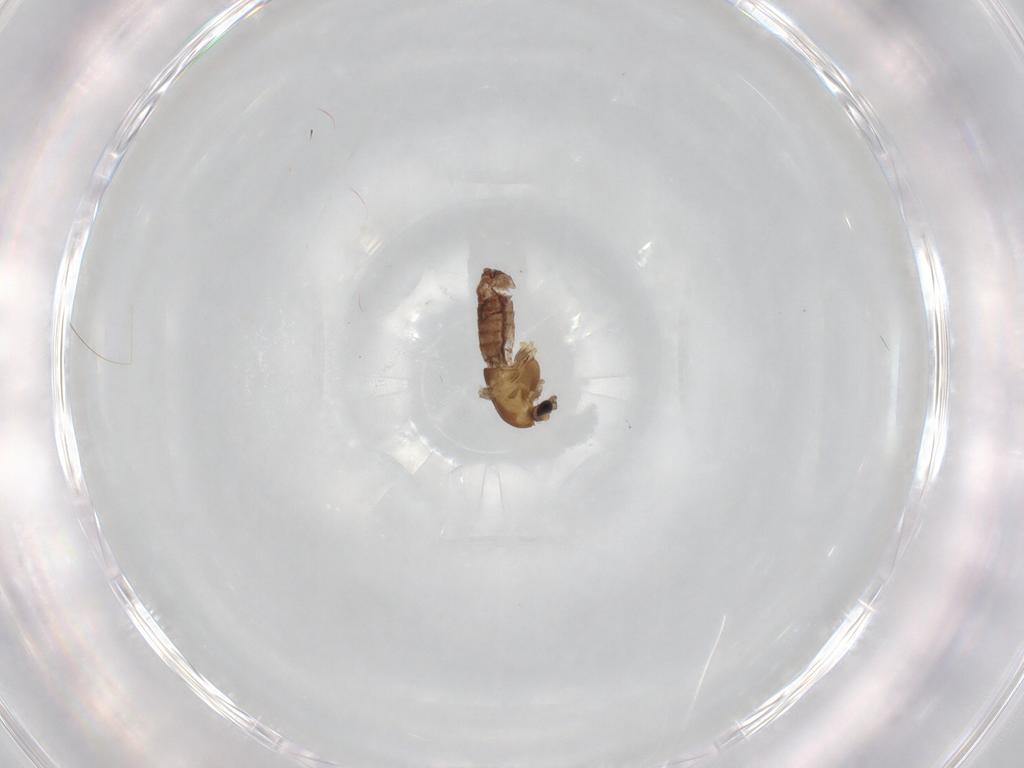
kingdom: Animalia
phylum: Arthropoda
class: Insecta
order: Diptera
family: Chironomidae
